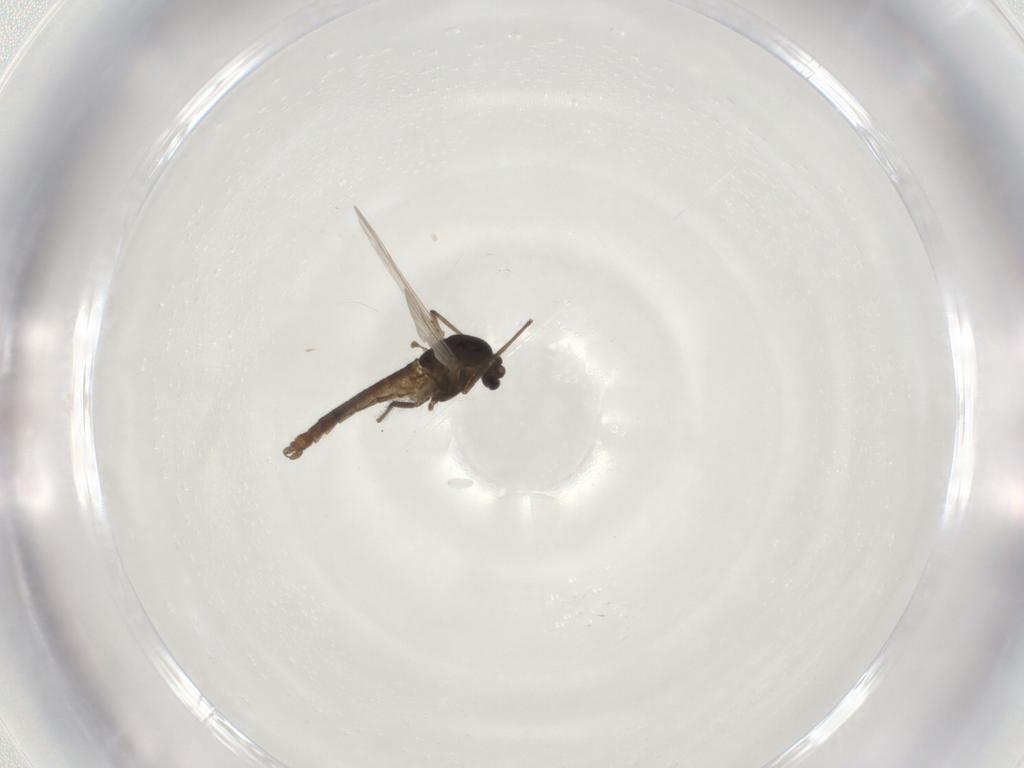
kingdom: Animalia
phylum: Arthropoda
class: Insecta
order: Diptera
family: Chironomidae
